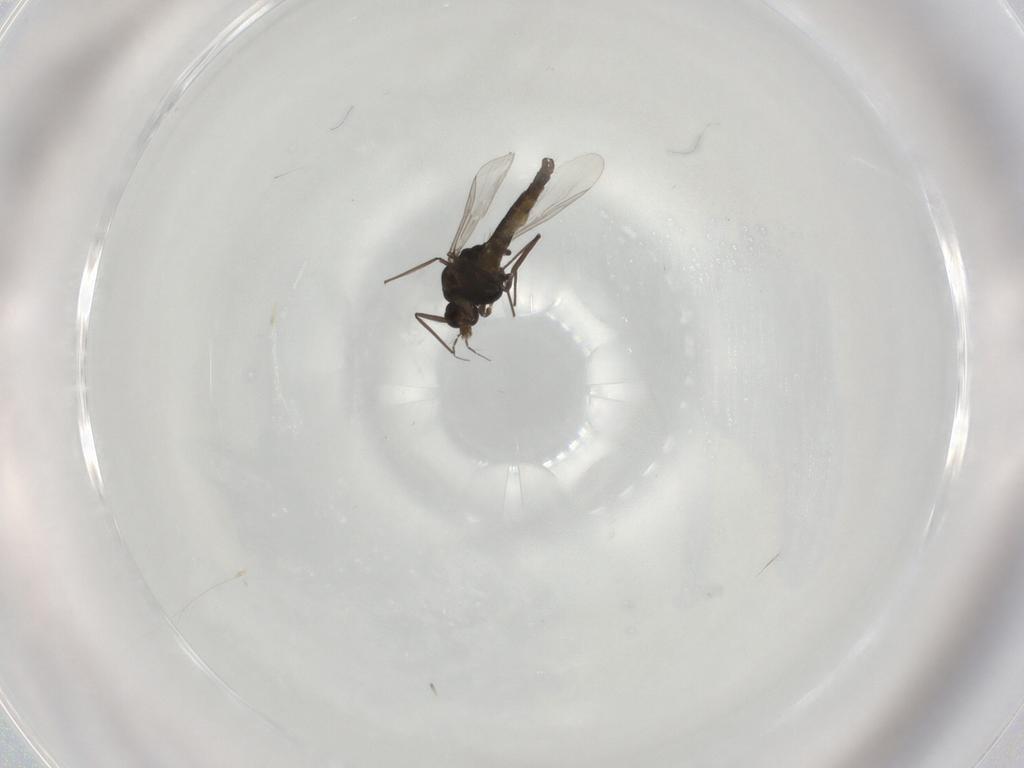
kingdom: Animalia
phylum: Arthropoda
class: Insecta
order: Diptera
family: Chironomidae
